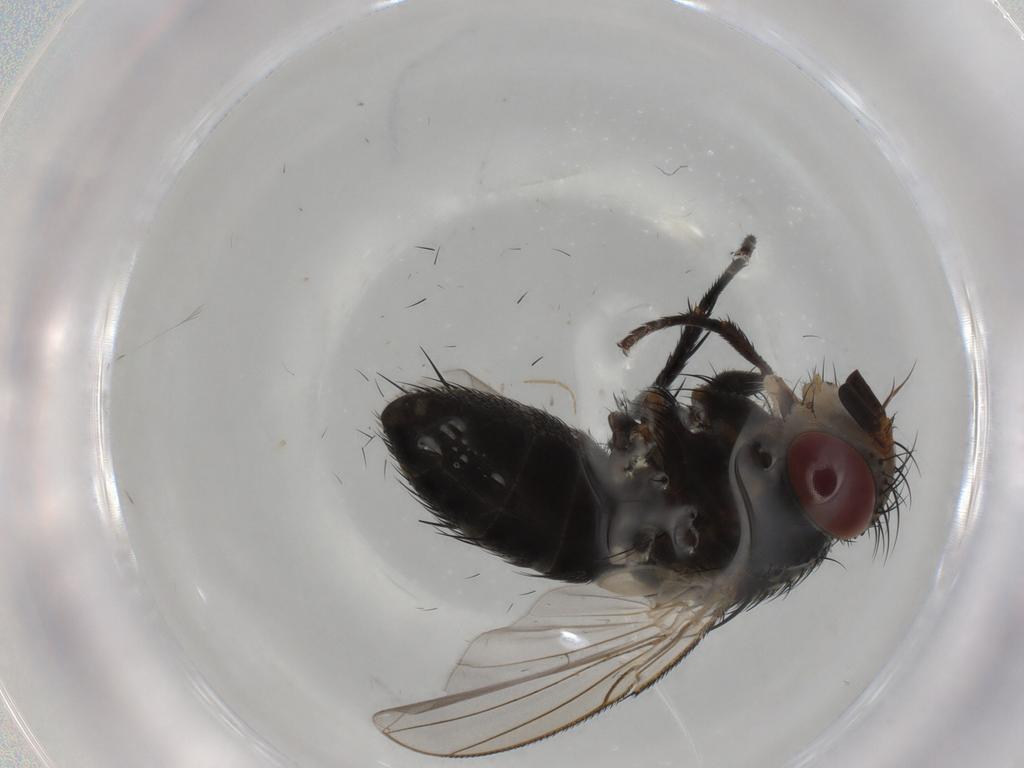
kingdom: Animalia
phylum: Arthropoda
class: Insecta
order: Diptera
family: Tachinidae
